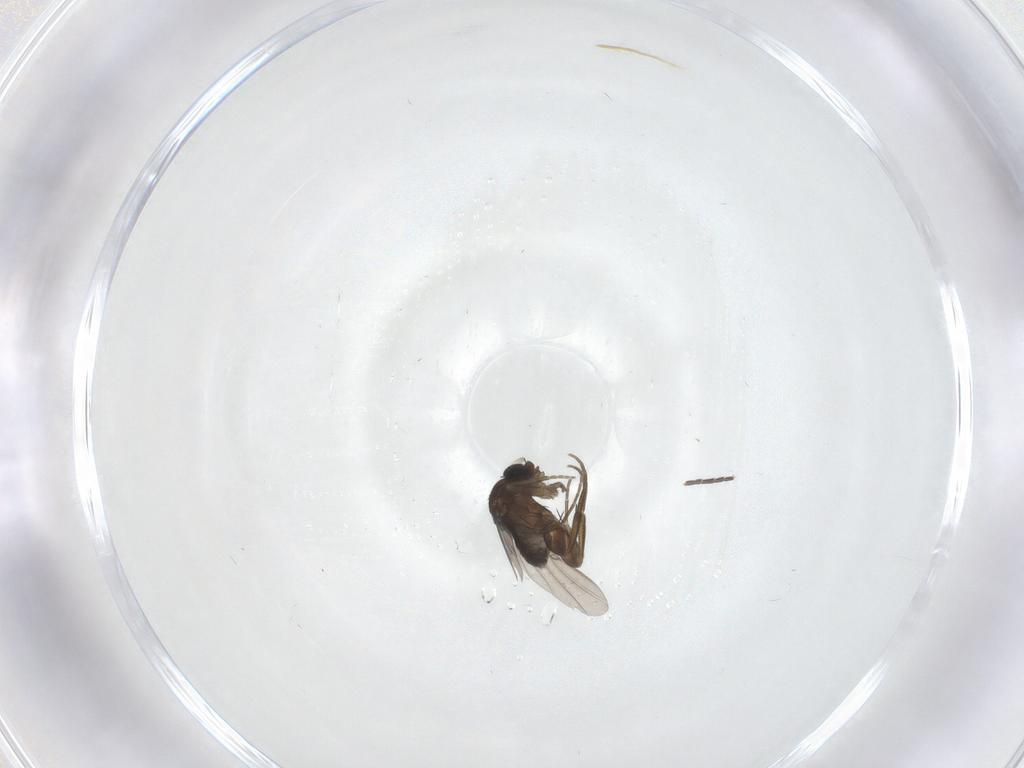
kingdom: Animalia
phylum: Arthropoda
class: Insecta
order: Diptera
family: Phoridae
